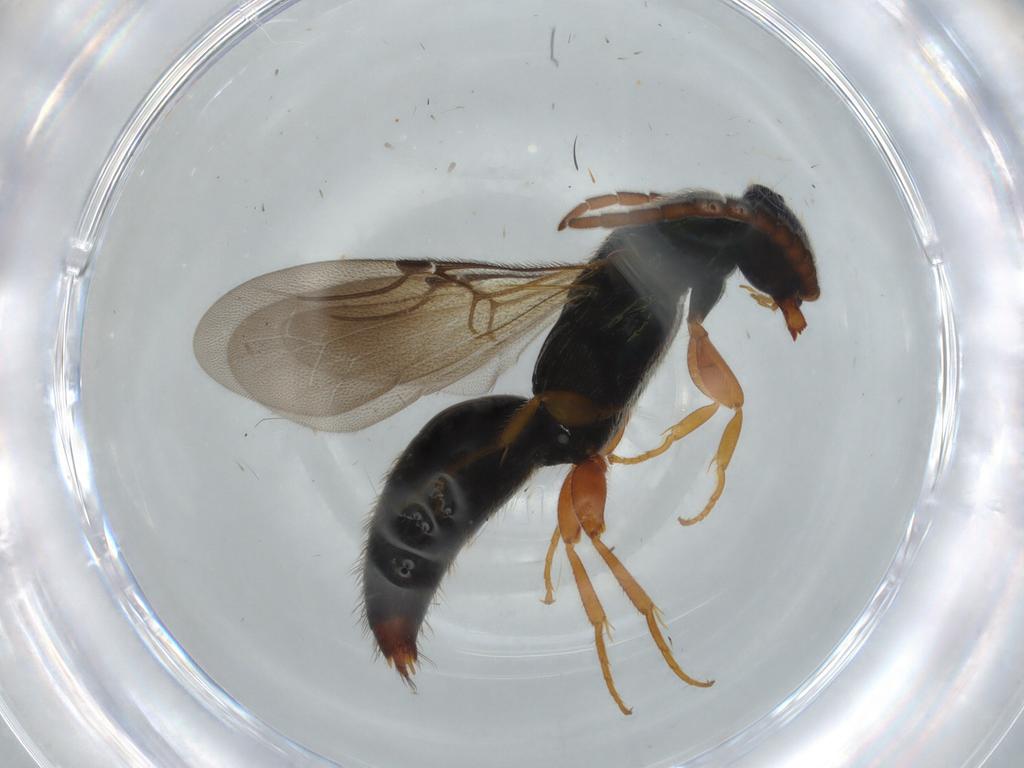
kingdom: Animalia
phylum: Arthropoda
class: Insecta
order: Hymenoptera
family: Bethylidae
